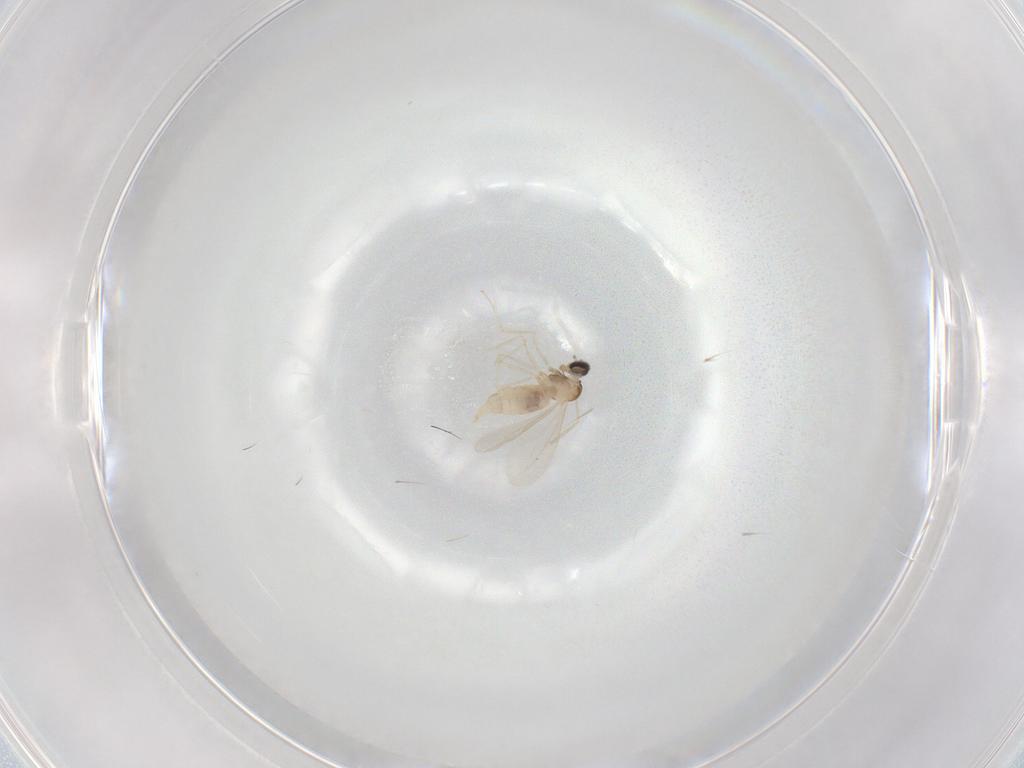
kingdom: Animalia
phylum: Arthropoda
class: Insecta
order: Diptera
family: Cecidomyiidae
